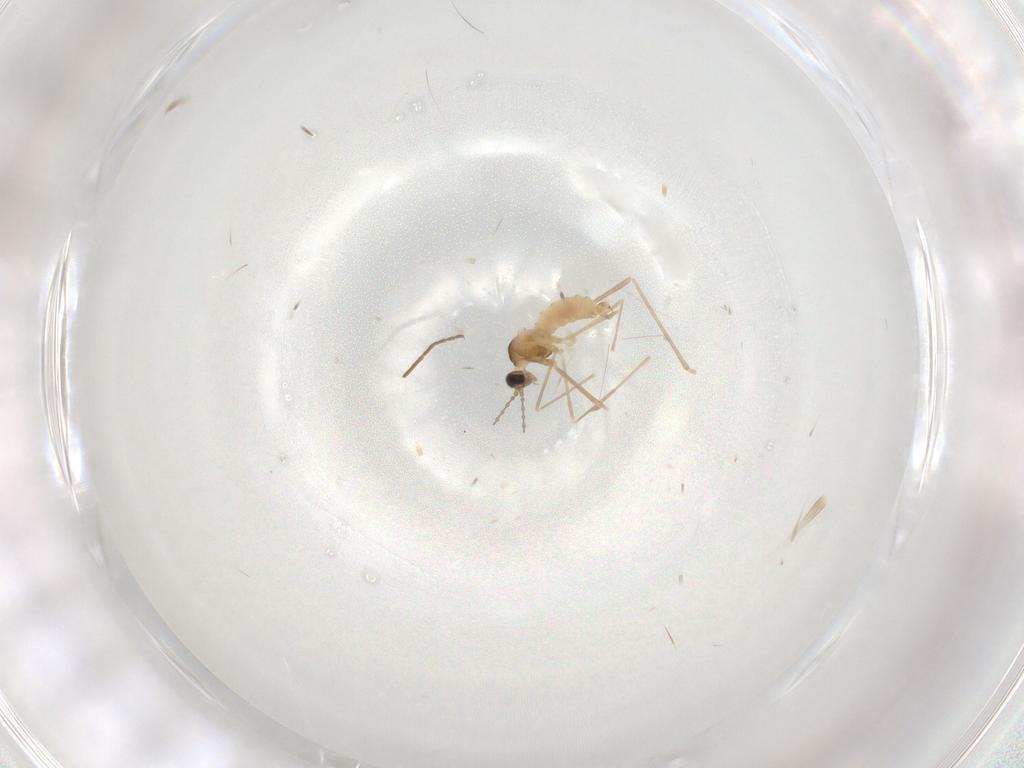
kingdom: Animalia
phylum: Arthropoda
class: Insecta
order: Diptera
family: Cecidomyiidae
